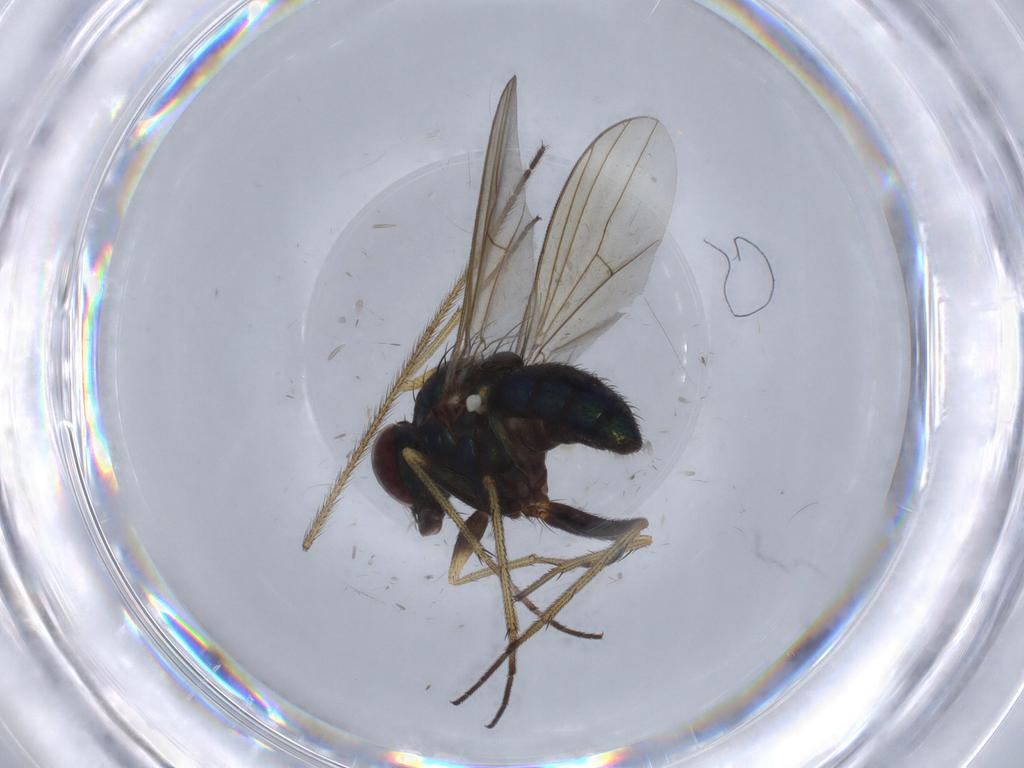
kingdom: Animalia
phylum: Arthropoda
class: Insecta
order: Diptera
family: Dolichopodidae
